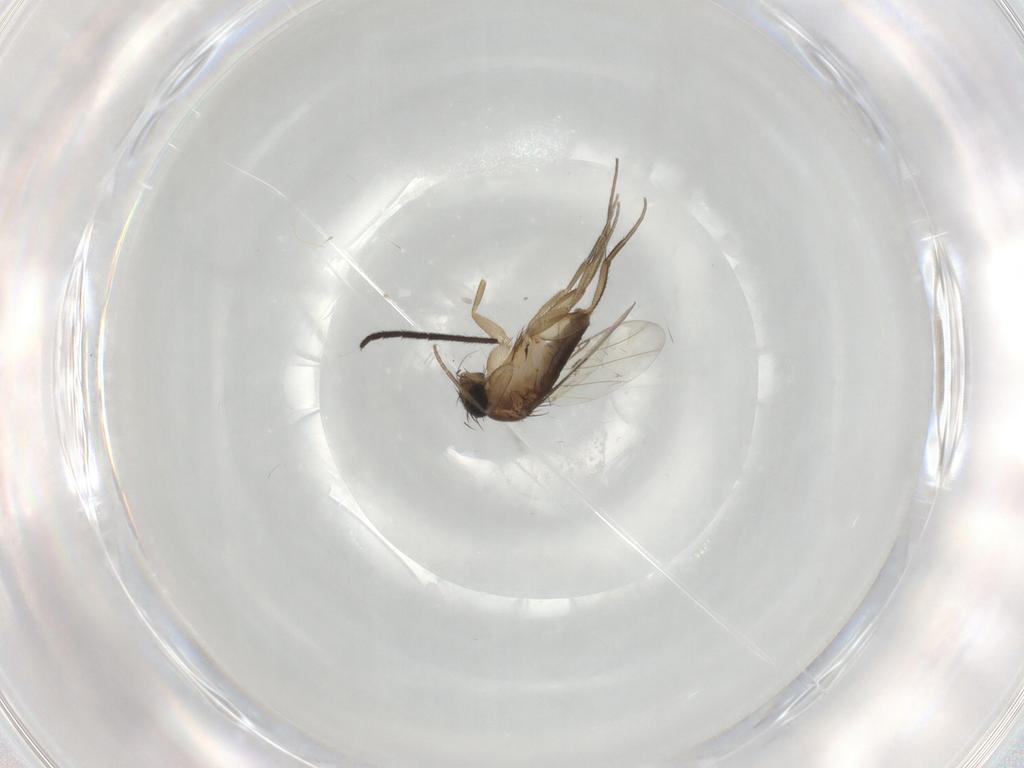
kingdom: Animalia
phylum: Arthropoda
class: Insecta
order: Diptera
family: Phoridae
